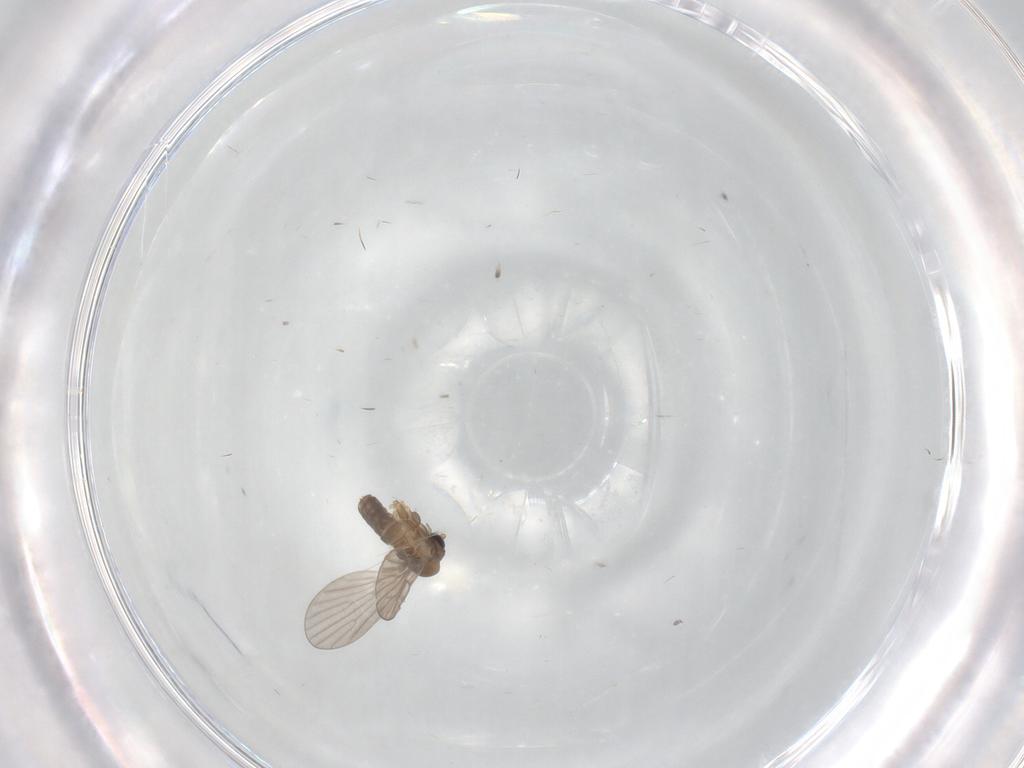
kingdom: Animalia
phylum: Arthropoda
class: Insecta
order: Diptera
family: Psychodidae
